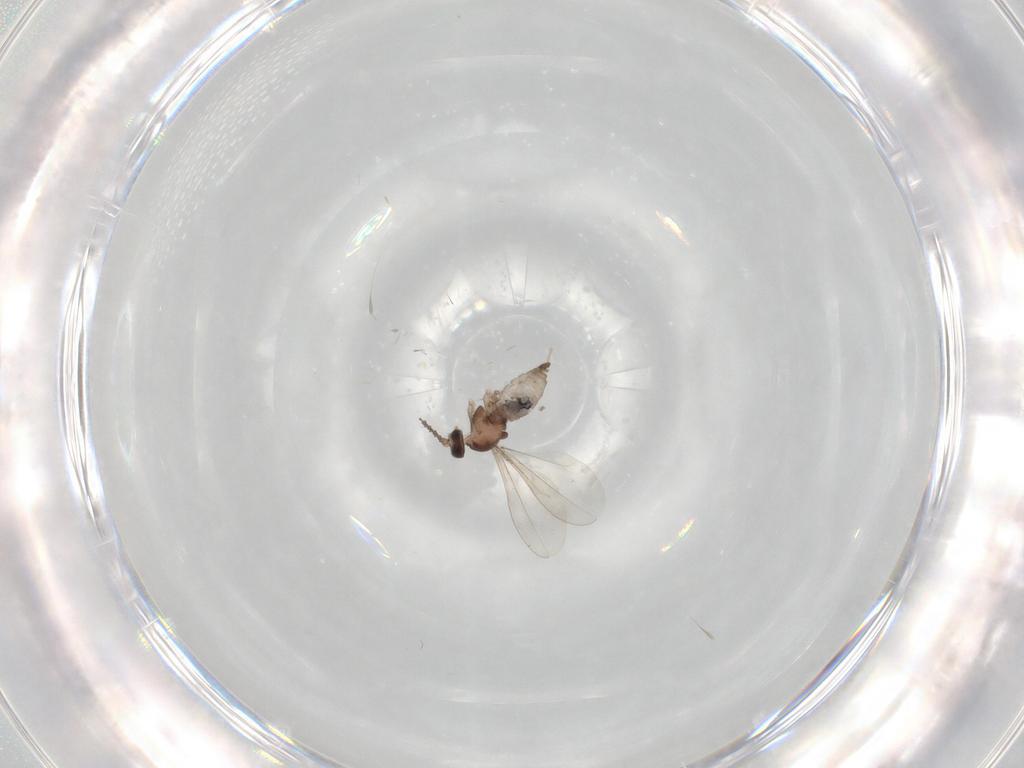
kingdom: Animalia
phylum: Arthropoda
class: Insecta
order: Diptera
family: Phoridae
